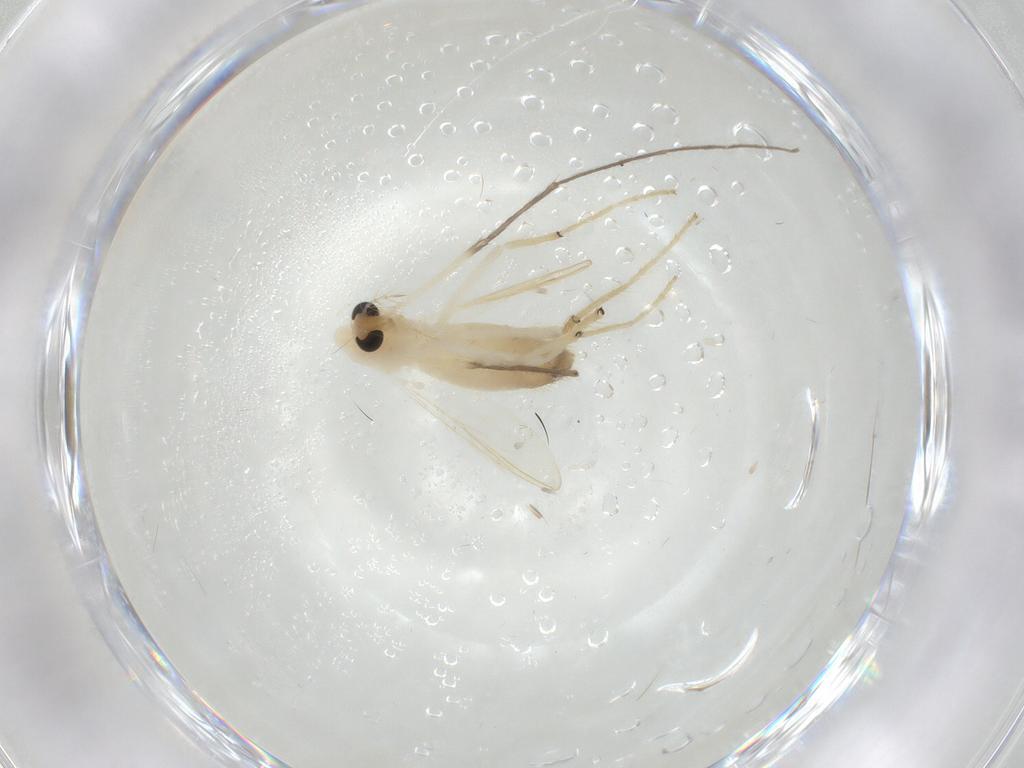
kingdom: Animalia
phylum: Arthropoda
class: Insecta
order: Diptera
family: Chironomidae
